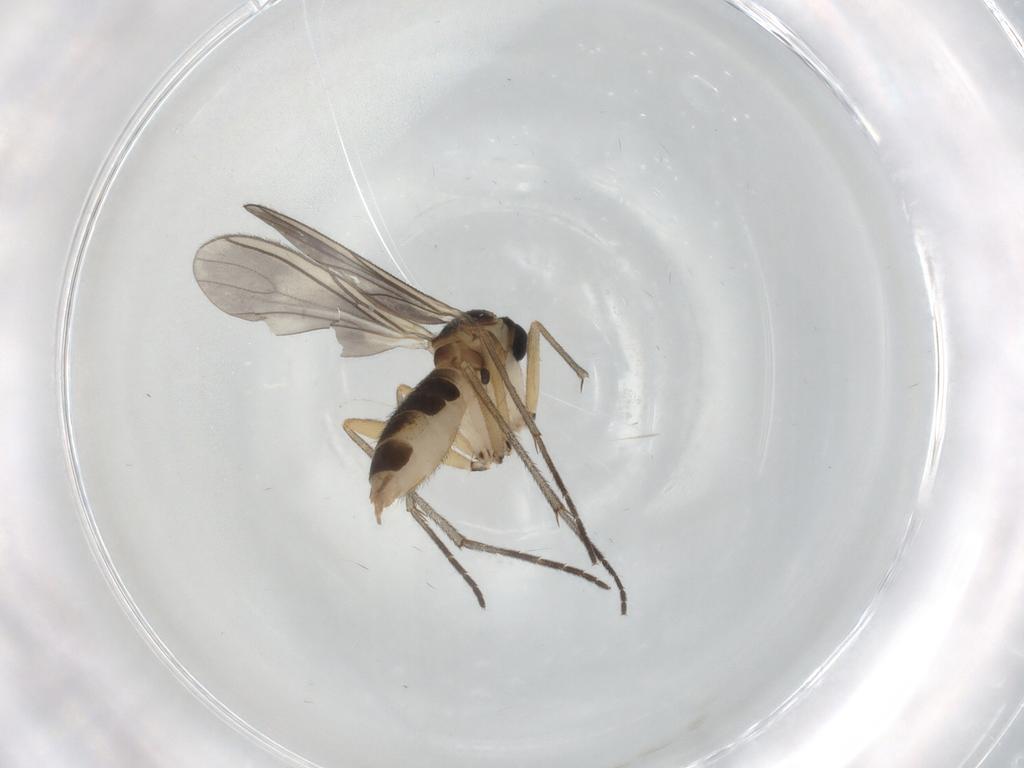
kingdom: Animalia
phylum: Arthropoda
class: Insecta
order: Diptera
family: Sciaridae
